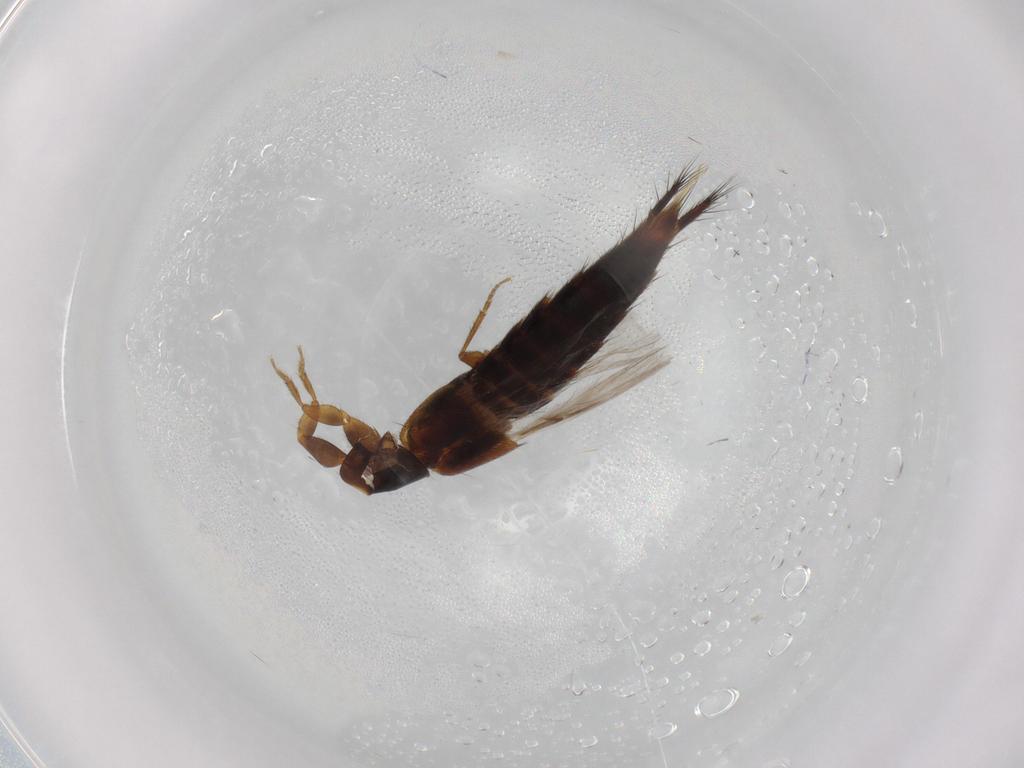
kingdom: Animalia
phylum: Arthropoda
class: Insecta
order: Coleoptera
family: Staphylinidae
